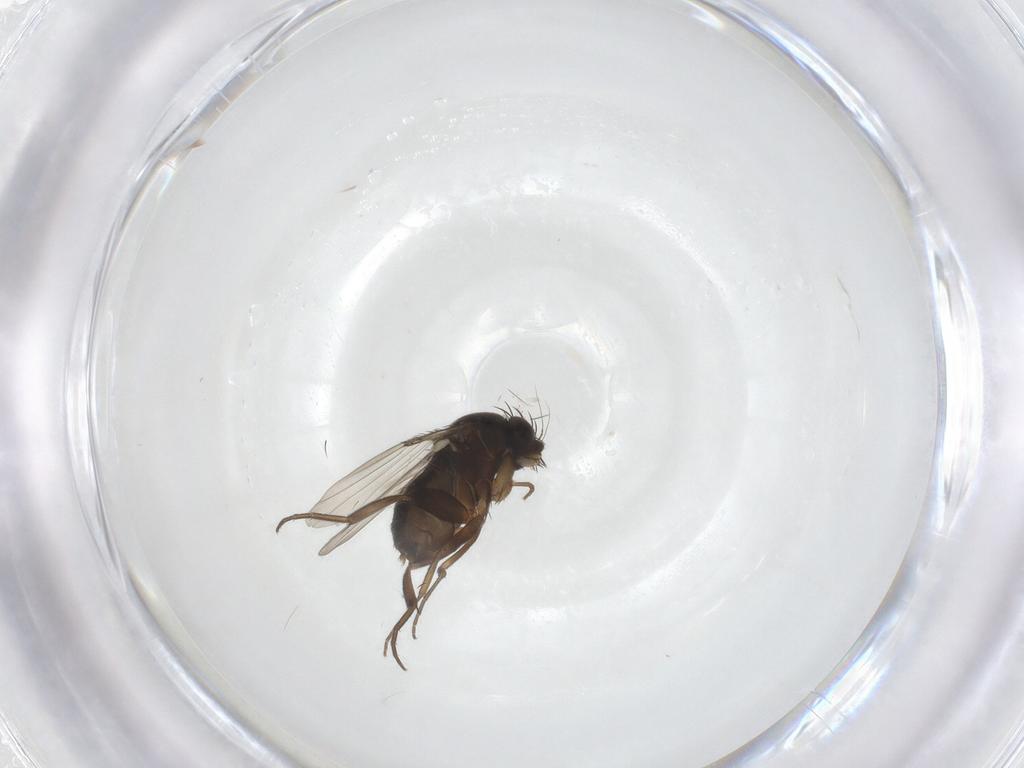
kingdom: Animalia
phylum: Arthropoda
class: Insecta
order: Diptera
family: Phoridae
